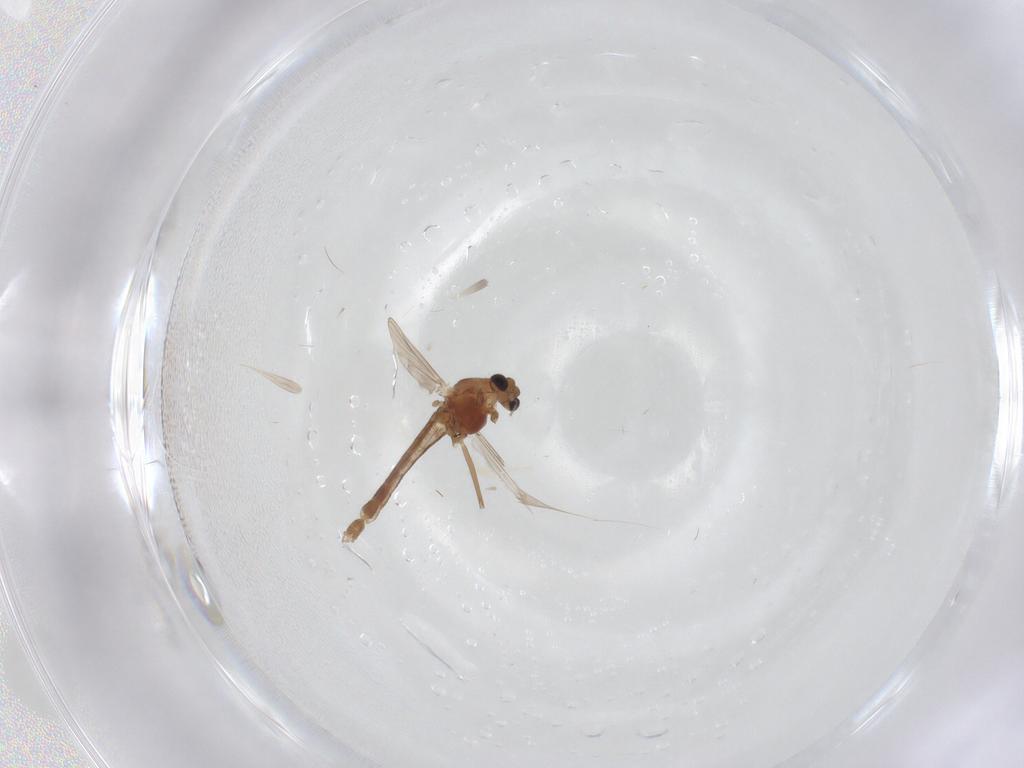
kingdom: Animalia
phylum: Arthropoda
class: Insecta
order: Diptera
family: Chironomidae
